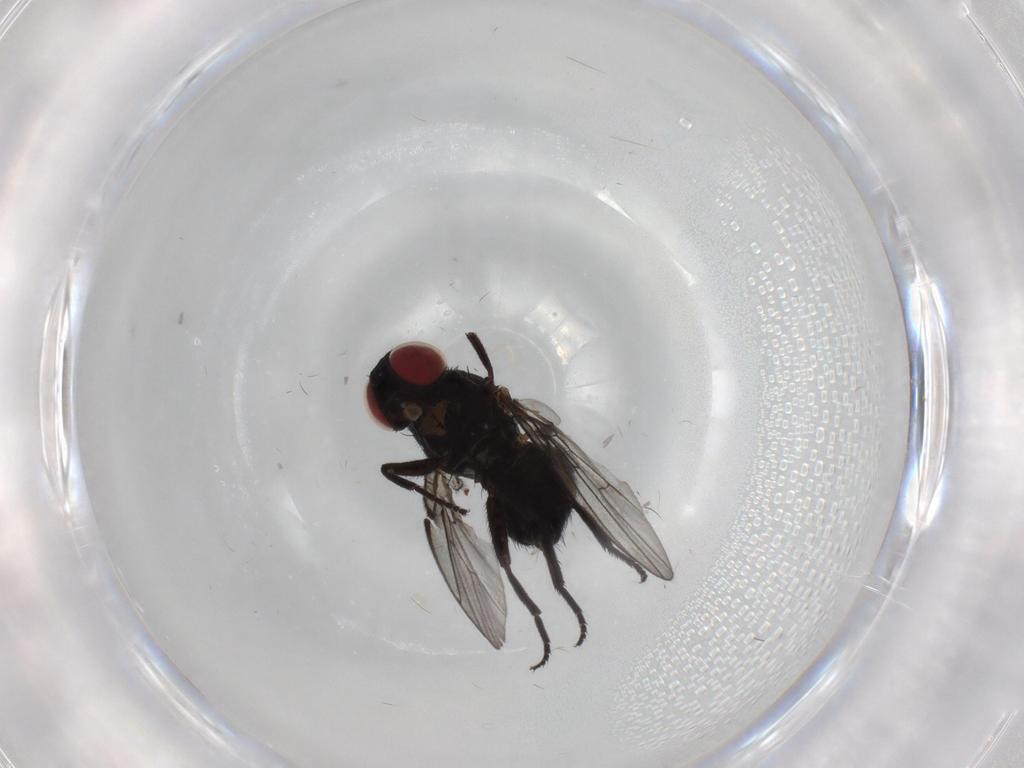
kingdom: Animalia
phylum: Arthropoda
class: Insecta
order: Diptera
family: Agromyzidae
